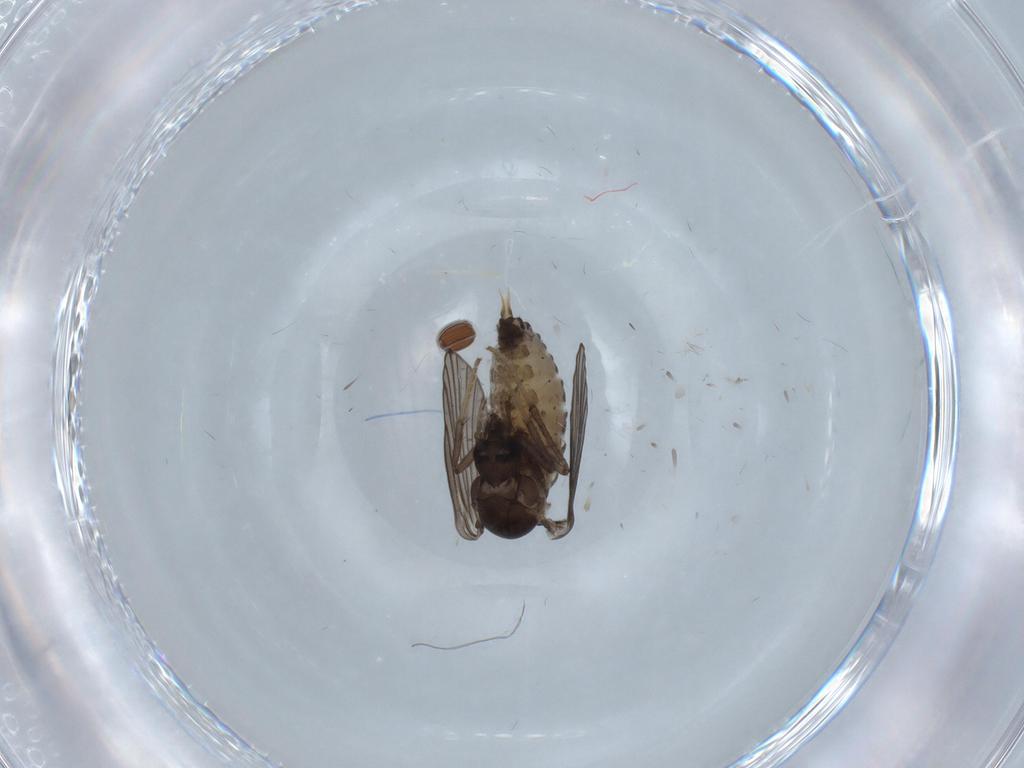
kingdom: Animalia
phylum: Arthropoda
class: Insecta
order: Diptera
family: Psychodidae
